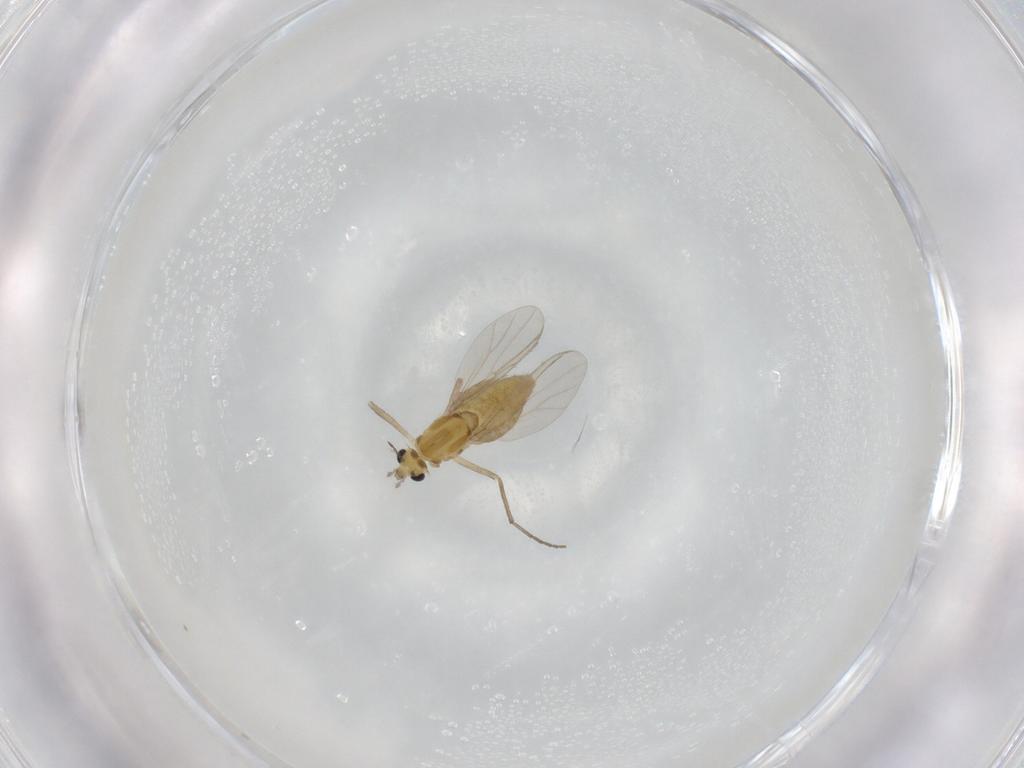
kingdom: Animalia
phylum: Arthropoda
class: Insecta
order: Diptera
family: Chironomidae
